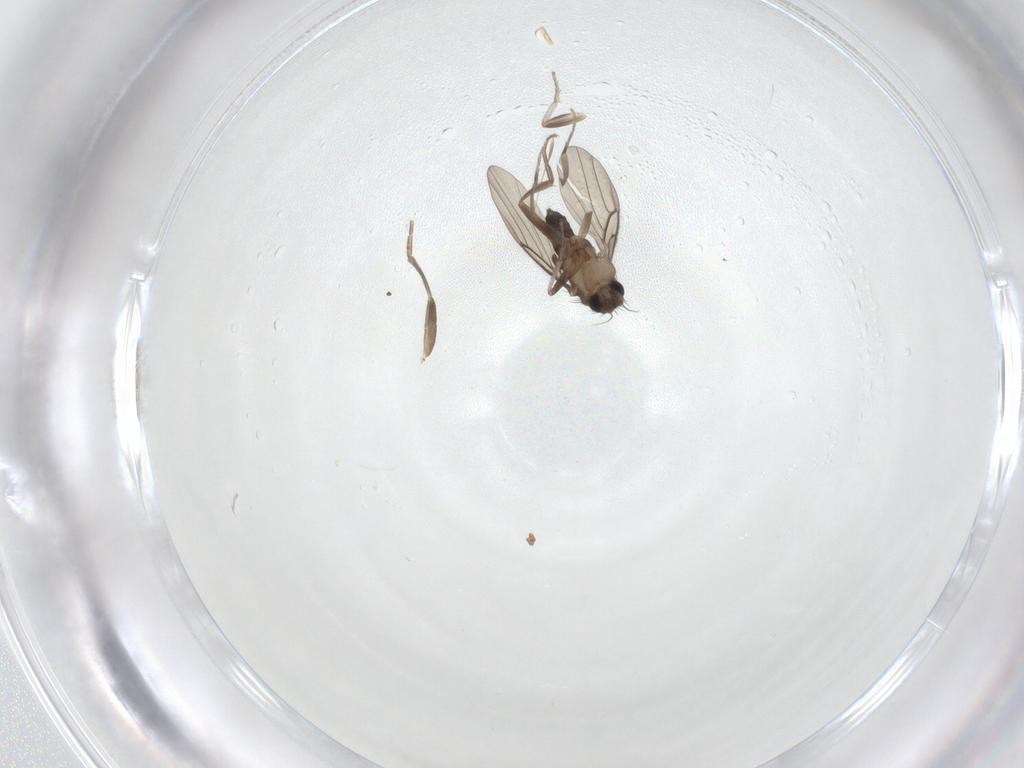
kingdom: Animalia
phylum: Arthropoda
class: Insecta
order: Diptera
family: Phoridae
